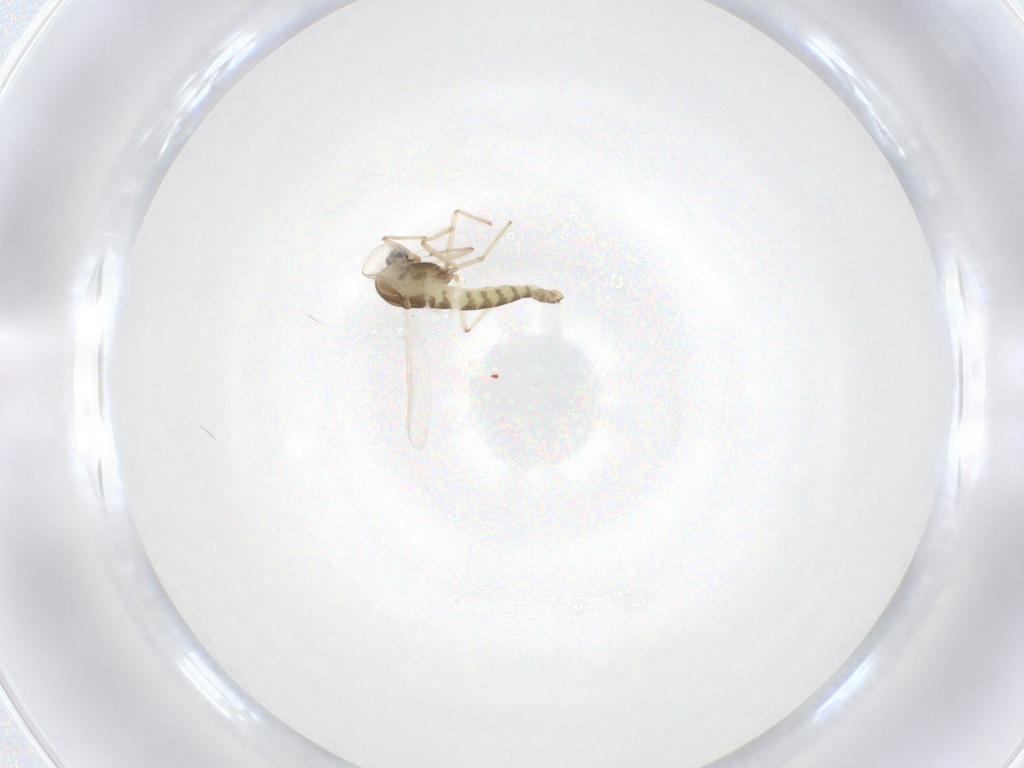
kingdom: Animalia
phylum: Arthropoda
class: Insecta
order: Diptera
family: Chironomidae
